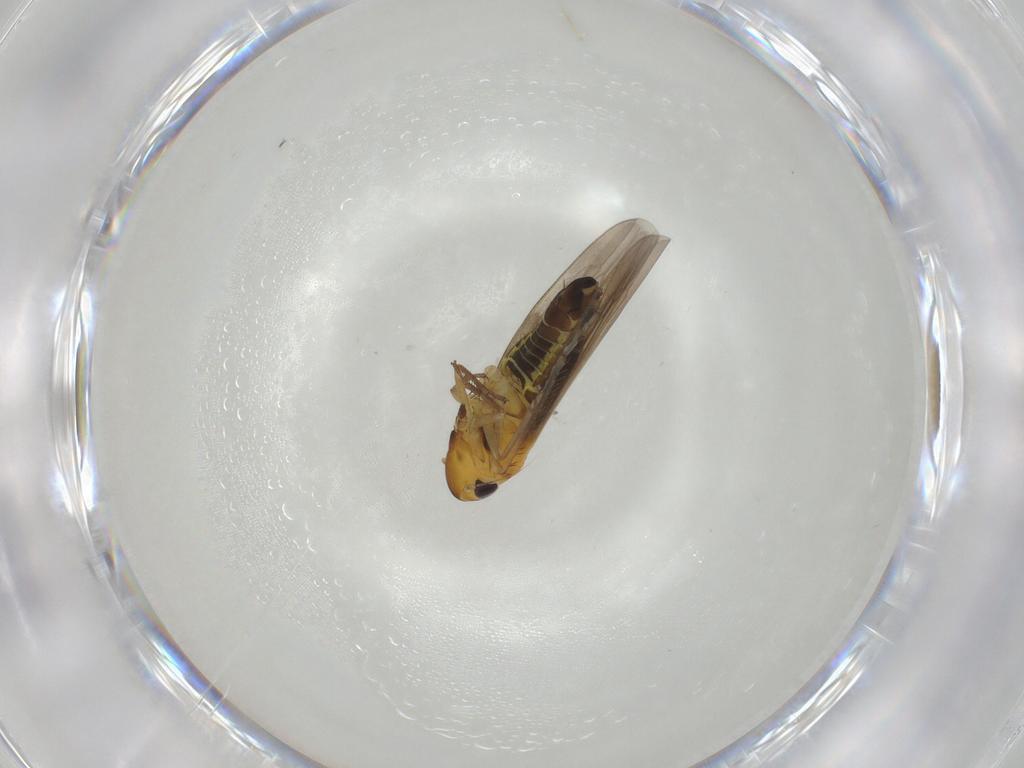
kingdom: Animalia
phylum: Arthropoda
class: Insecta
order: Hemiptera
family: Cicadellidae
